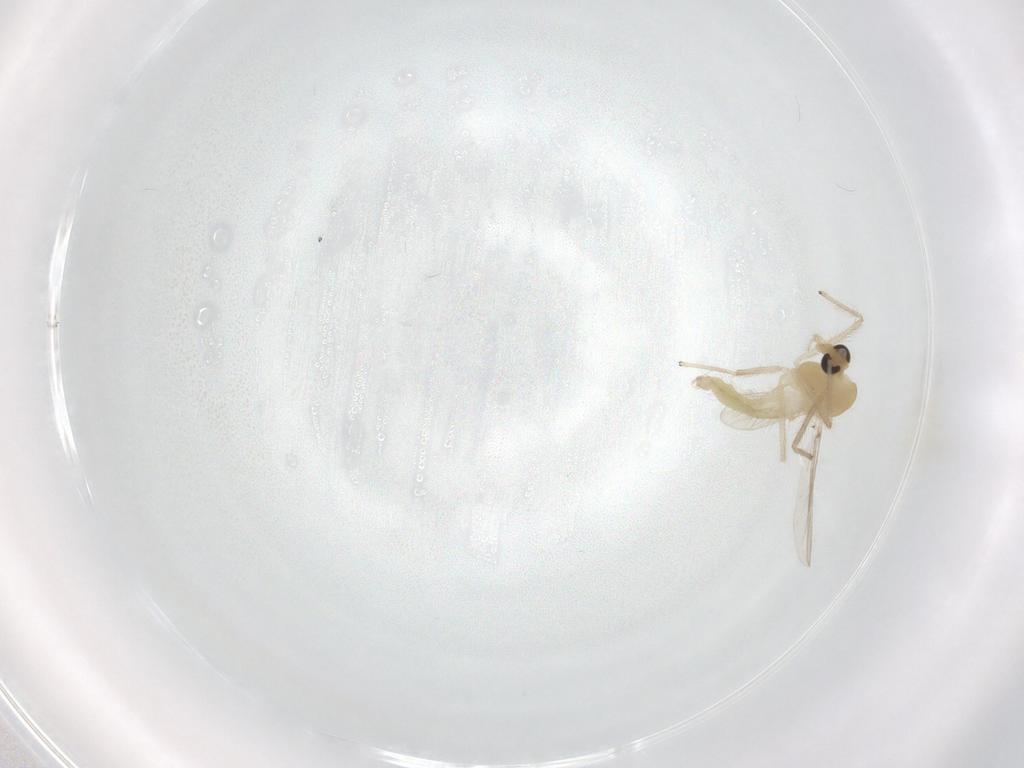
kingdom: Animalia
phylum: Arthropoda
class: Insecta
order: Diptera
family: Chironomidae
